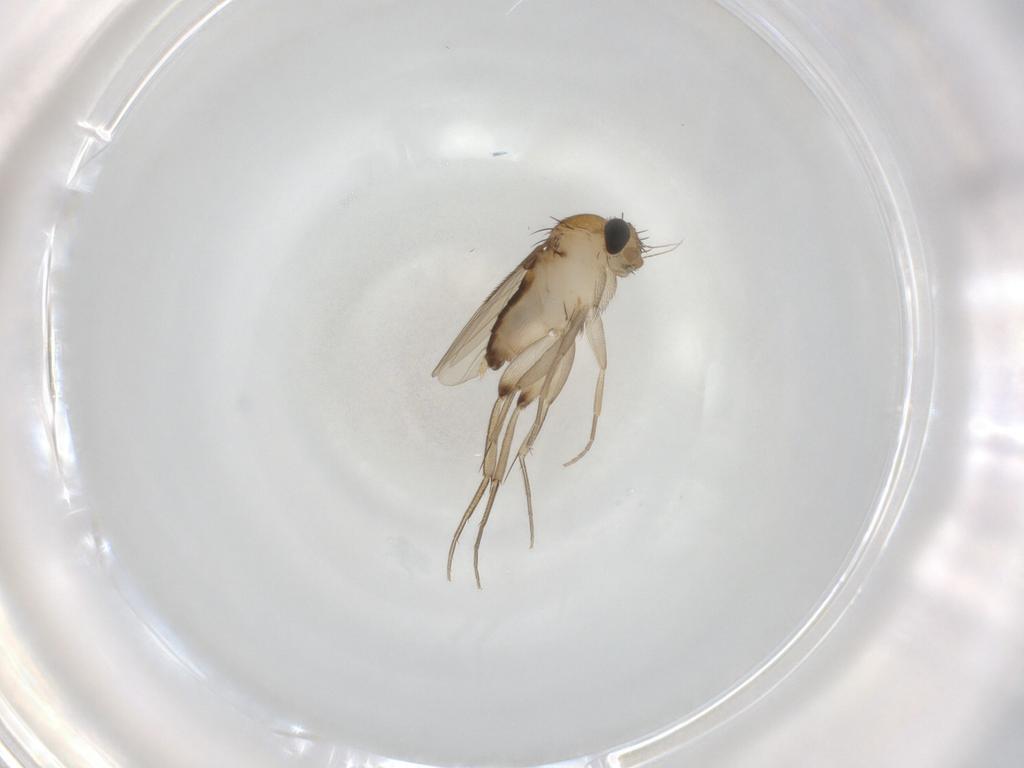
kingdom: Animalia
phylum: Arthropoda
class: Insecta
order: Diptera
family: Phoridae
